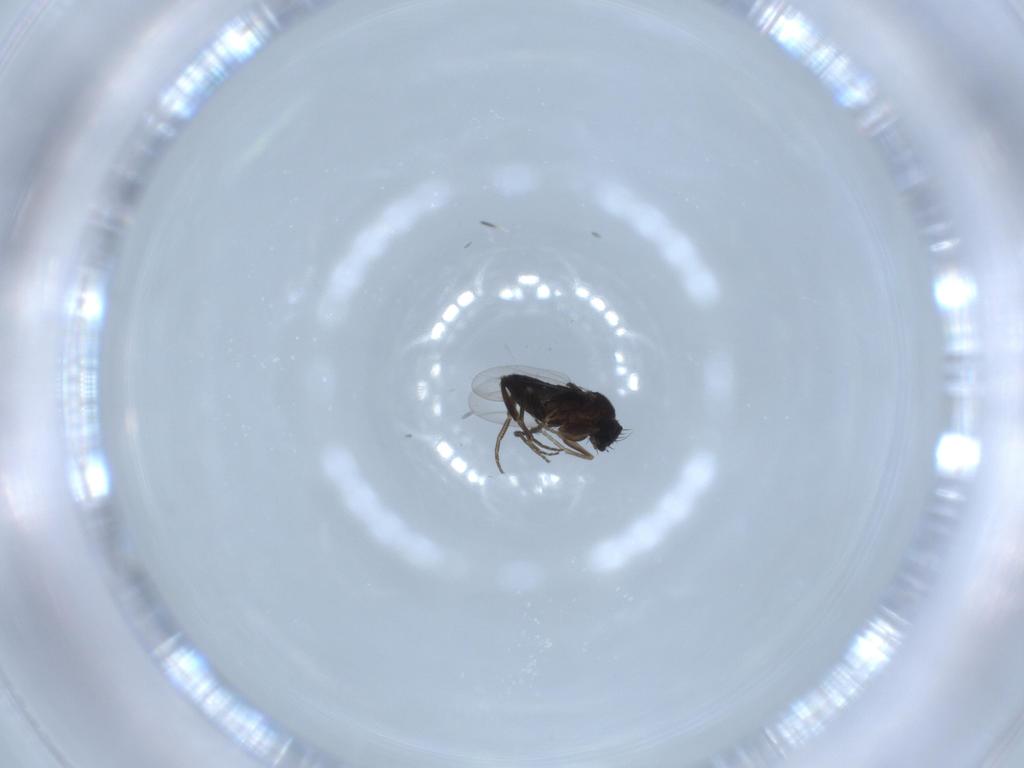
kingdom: Animalia
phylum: Arthropoda
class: Insecta
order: Diptera
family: Phoridae
